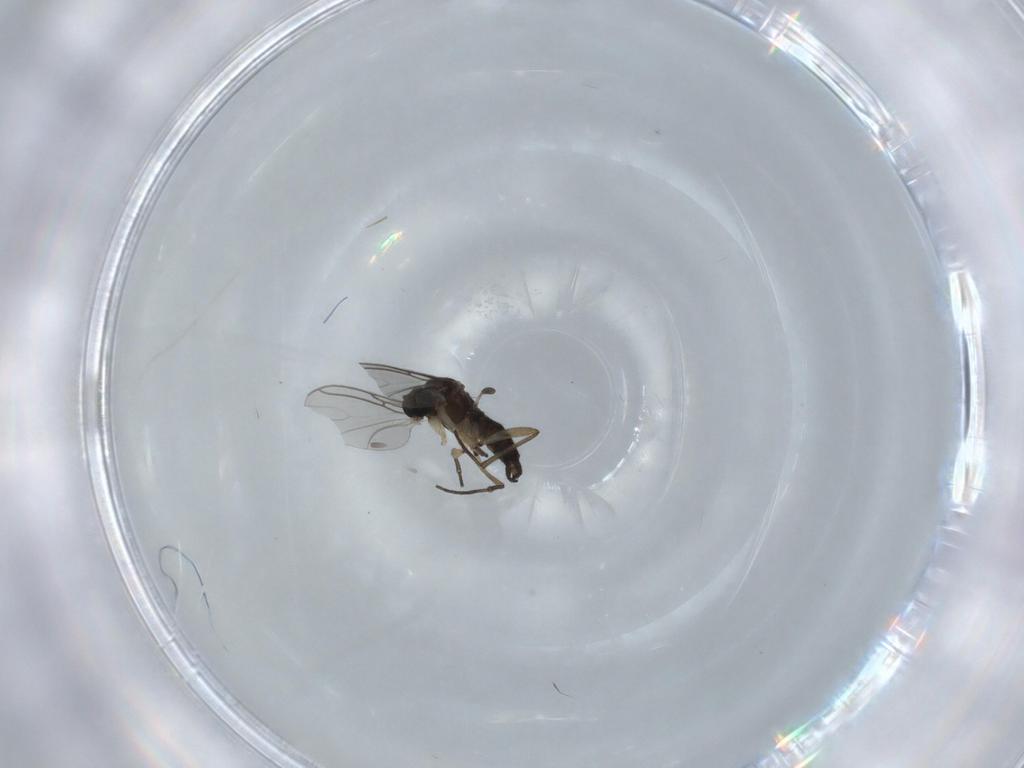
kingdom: Animalia
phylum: Arthropoda
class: Insecta
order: Diptera
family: Sciaridae
